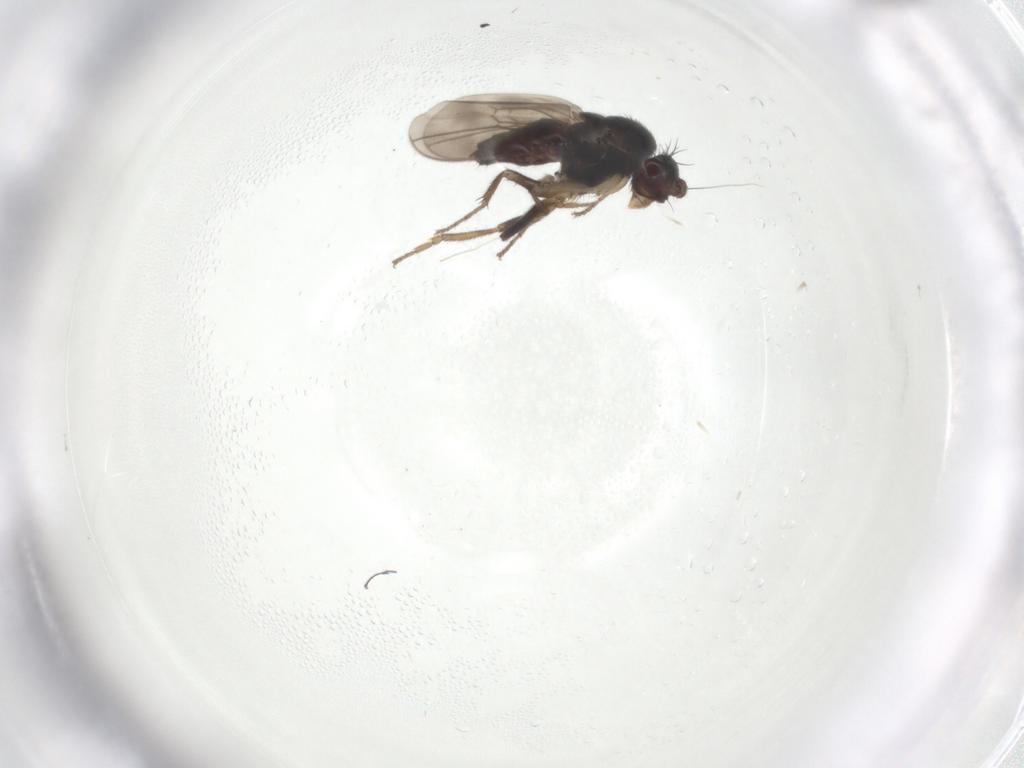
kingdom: Animalia
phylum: Arthropoda
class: Insecta
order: Diptera
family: Sphaeroceridae
